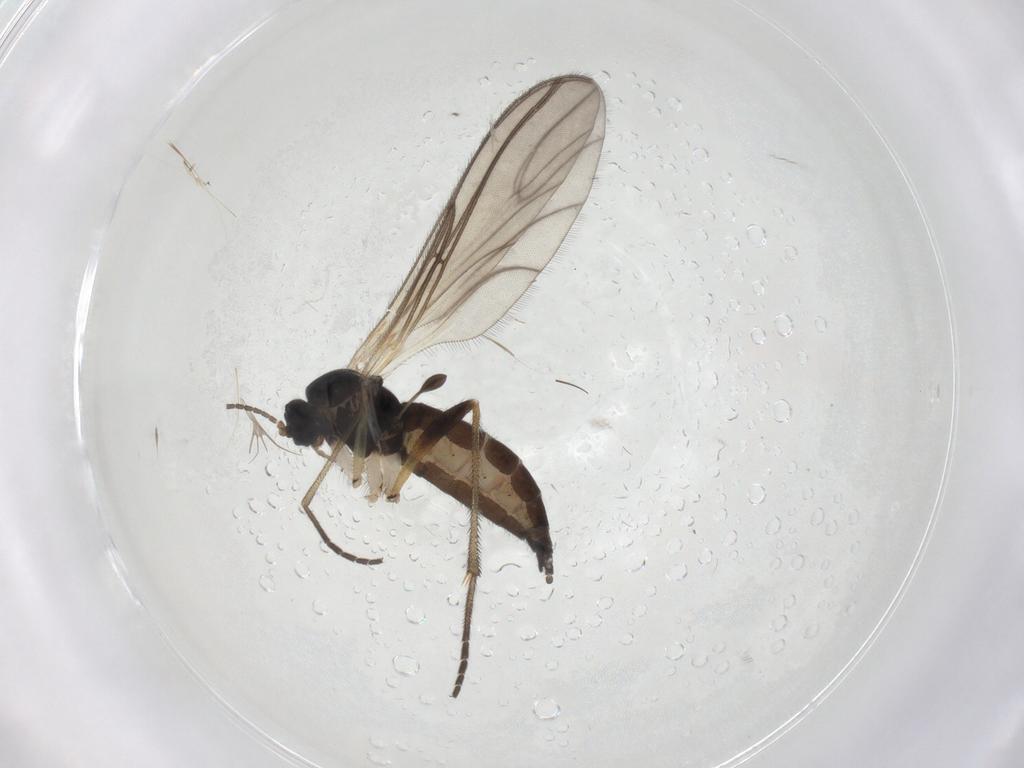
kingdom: Animalia
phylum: Arthropoda
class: Insecta
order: Diptera
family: Sciaridae
